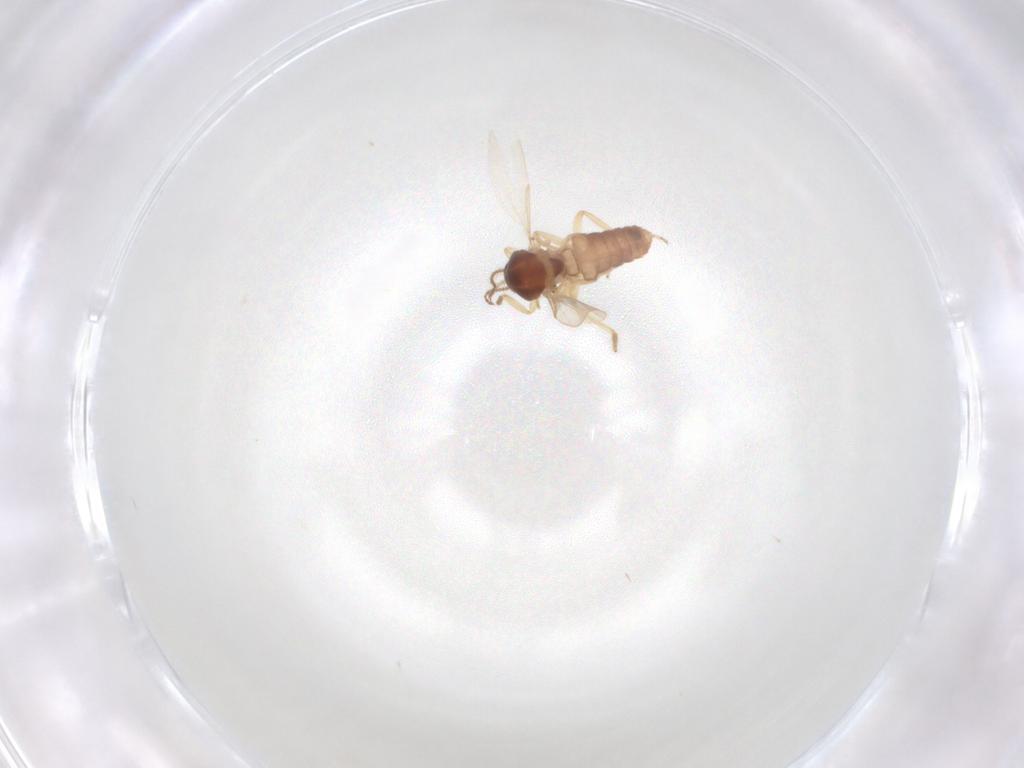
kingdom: Animalia
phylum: Arthropoda
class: Insecta
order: Diptera
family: Ceratopogonidae
